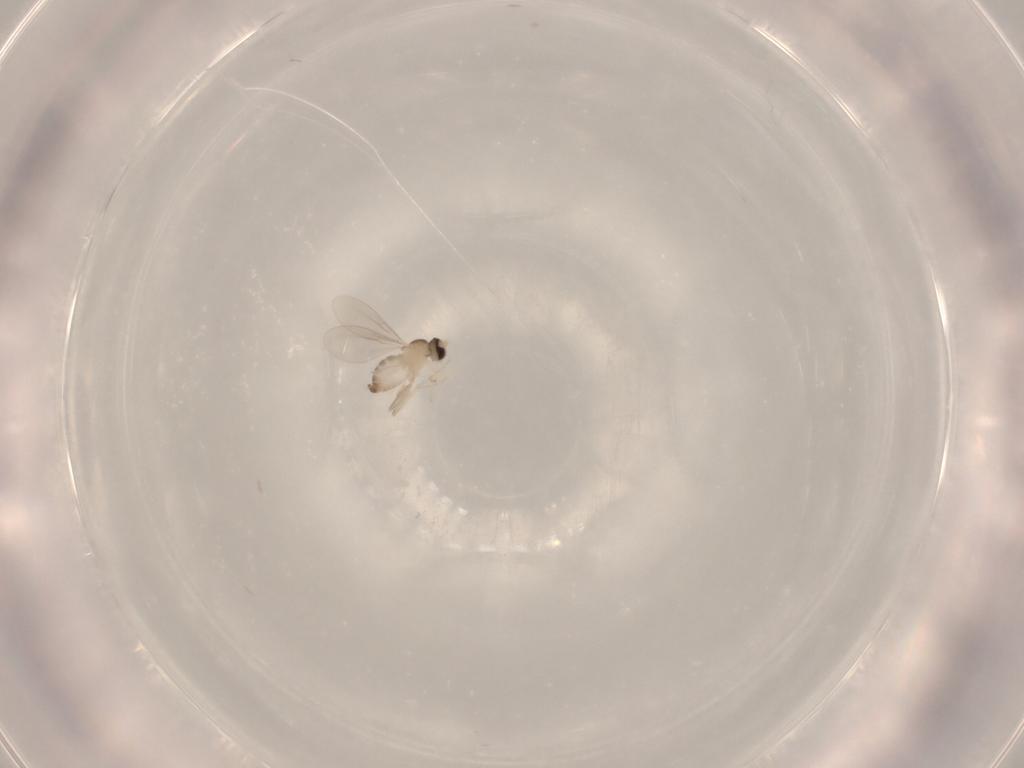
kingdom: Animalia
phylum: Arthropoda
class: Insecta
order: Diptera
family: Cecidomyiidae
